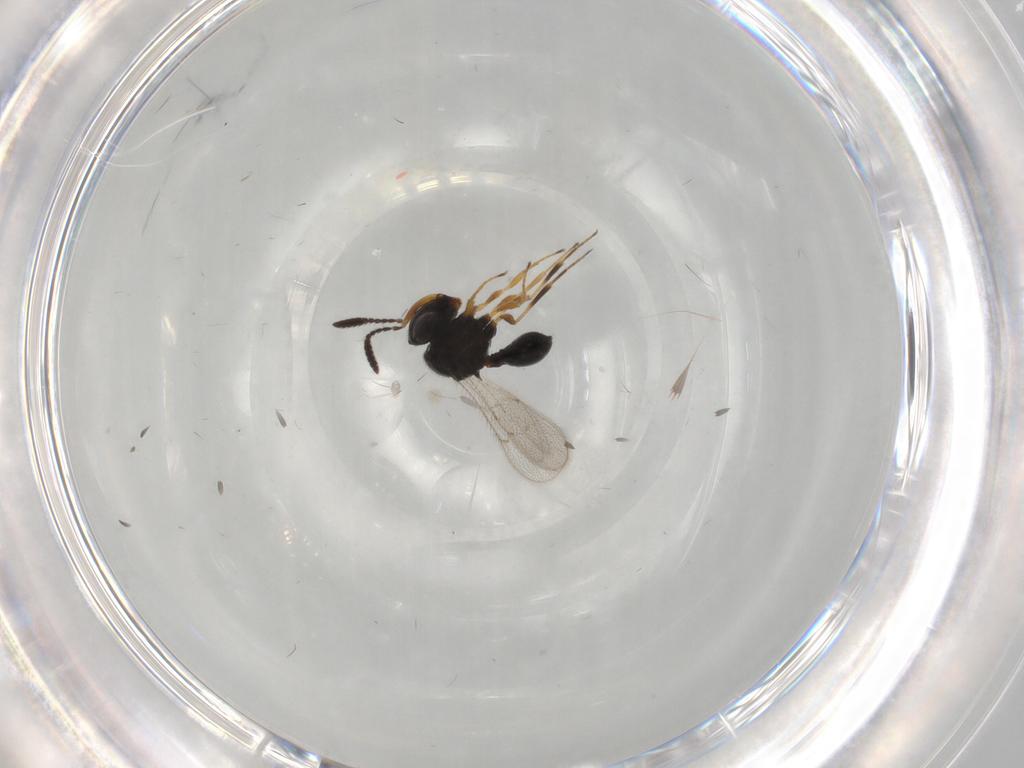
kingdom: Animalia
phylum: Arthropoda
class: Insecta
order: Hymenoptera
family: Scelionidae
